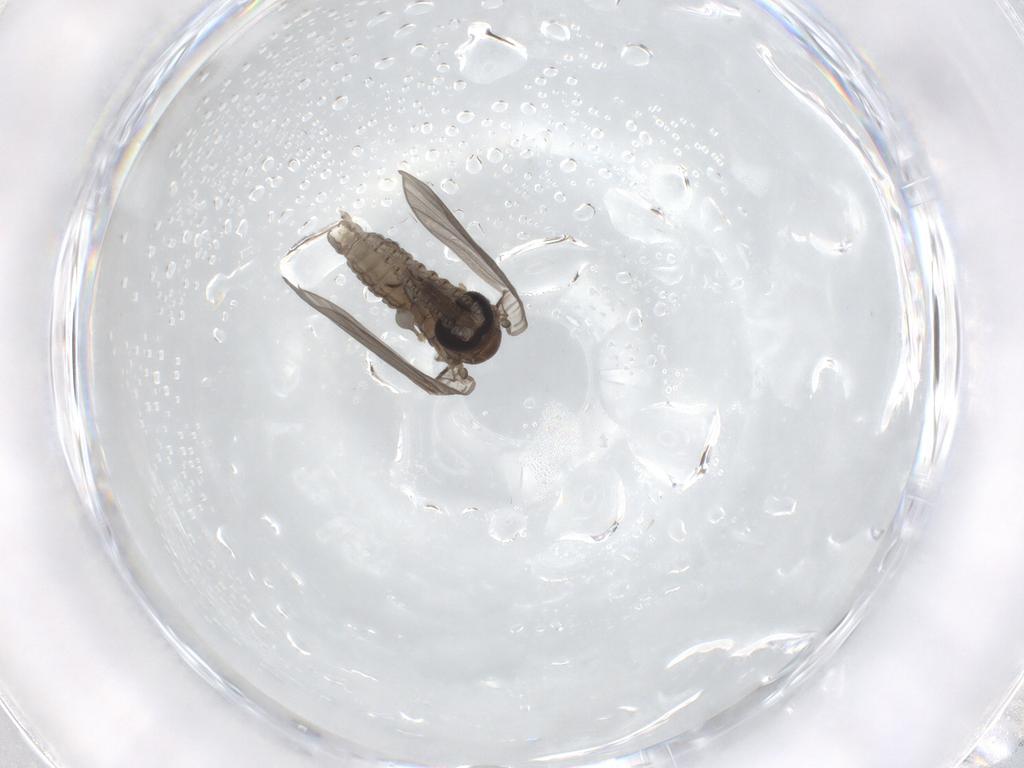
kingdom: Animalia
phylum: Arthropoda
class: Insecta
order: Diptera
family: Psychodidae
